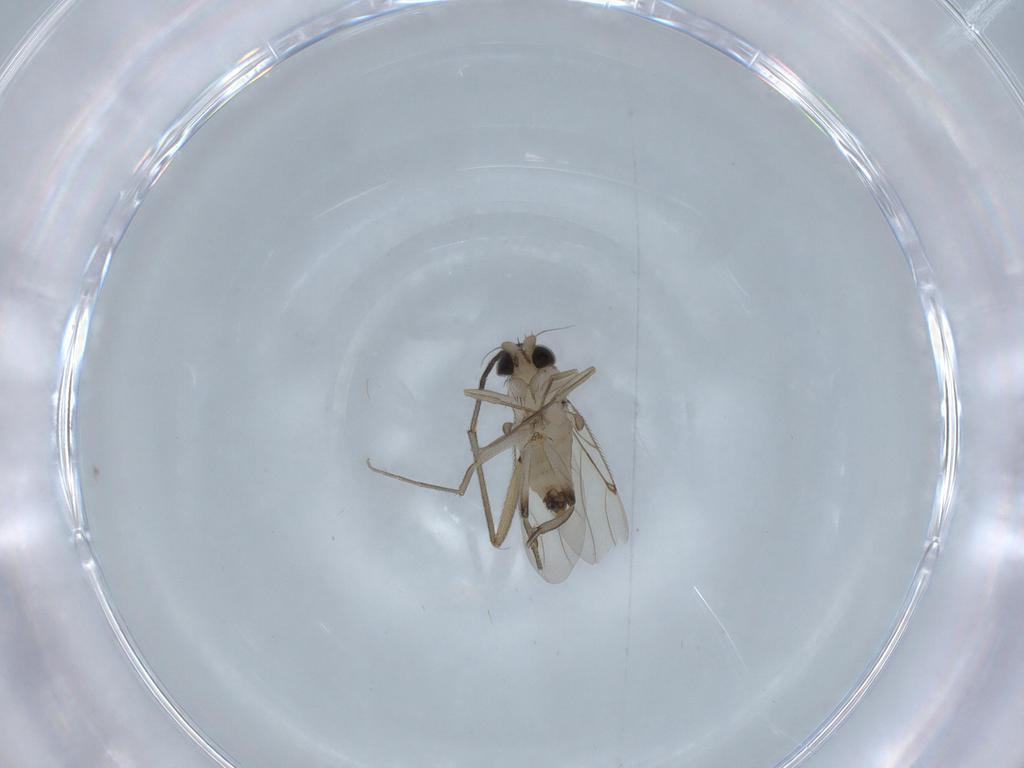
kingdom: Animalia
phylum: Arthropoda
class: Insecta
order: Diptera
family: Sciaridae
